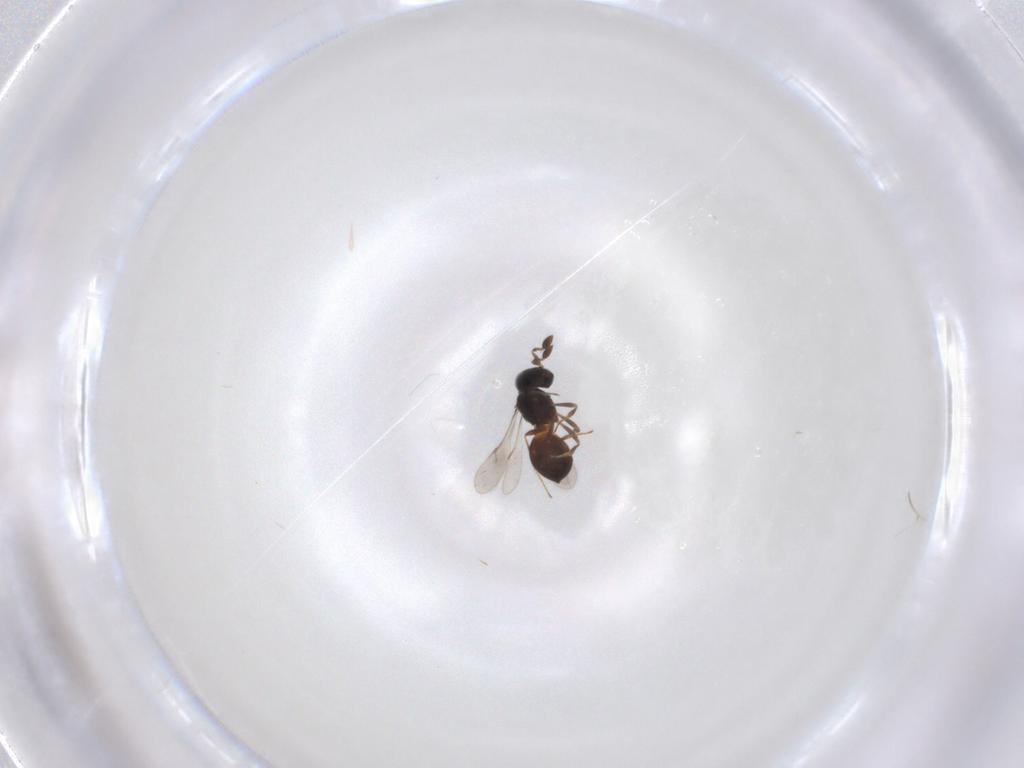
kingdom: Animalia
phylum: Arthropoda
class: Insecta
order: Hymenoptera
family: Scelionidae
